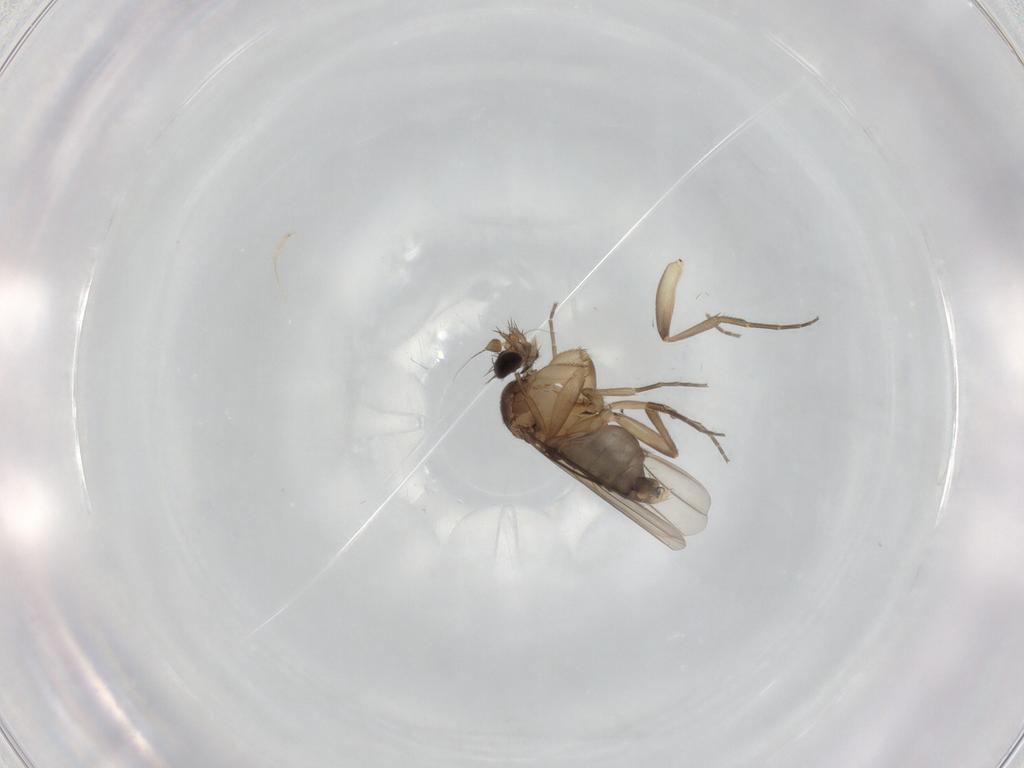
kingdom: Animalia
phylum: Arthropoda
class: Insecta
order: Diptera
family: Phoridae
